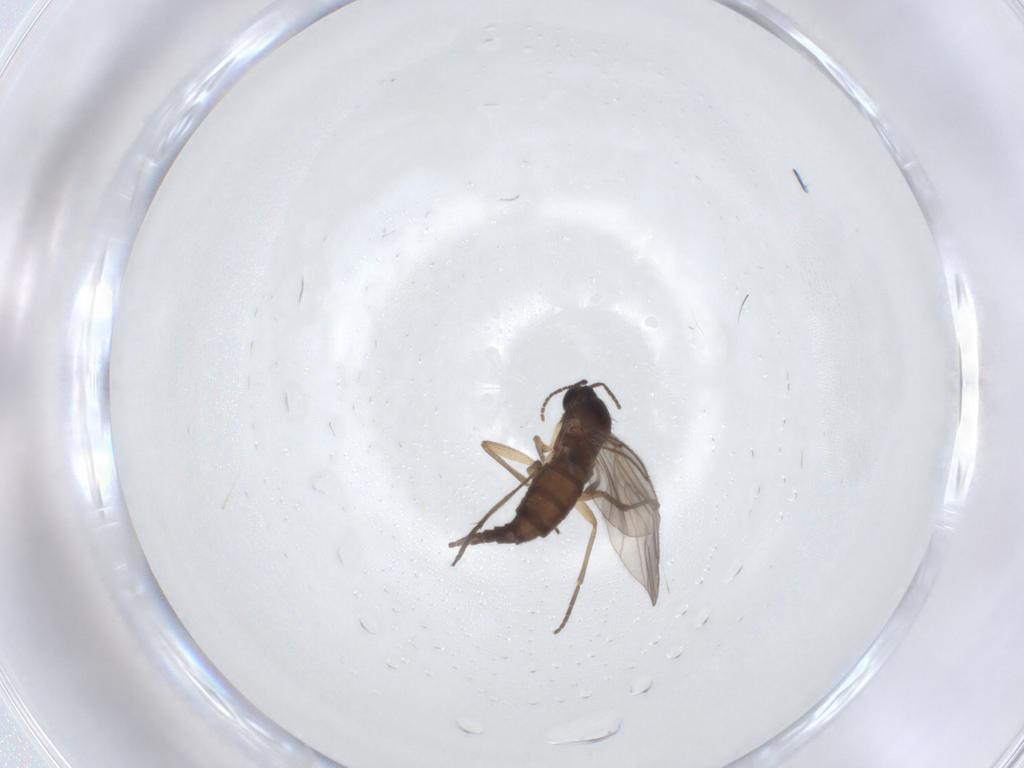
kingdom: Animalia
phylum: Arthropoda
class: Insecta
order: Diptera
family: Sciaridae
